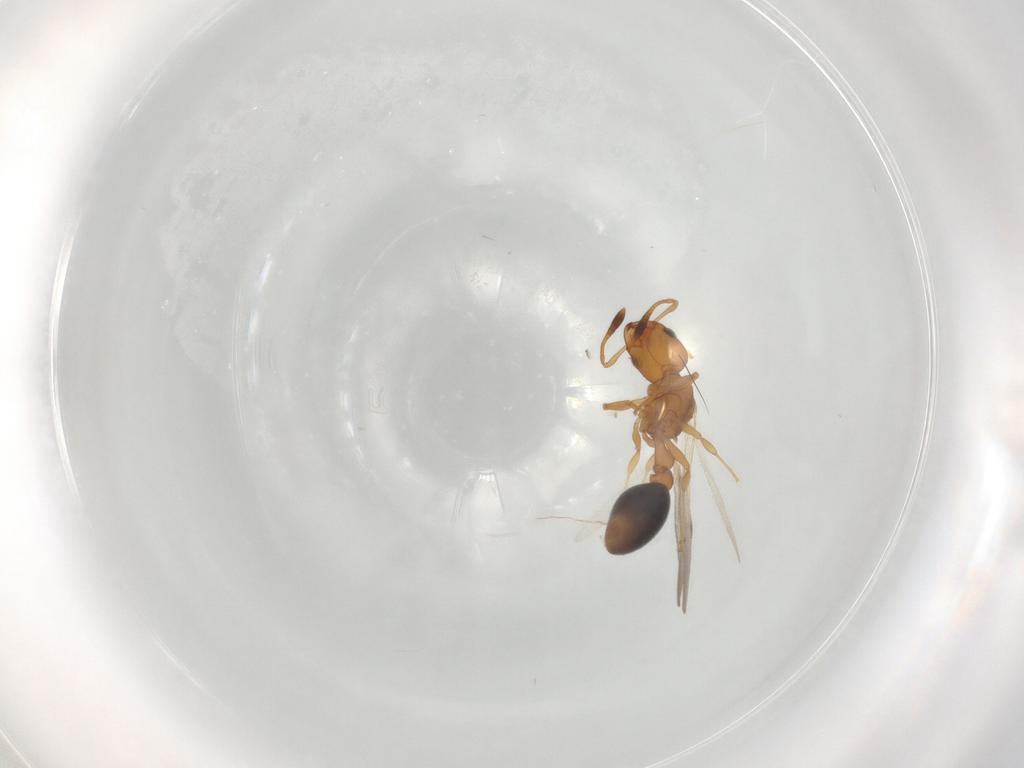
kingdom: Animalia
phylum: Arthropoda
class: Insecta
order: Hymenoptera
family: Formicidae
